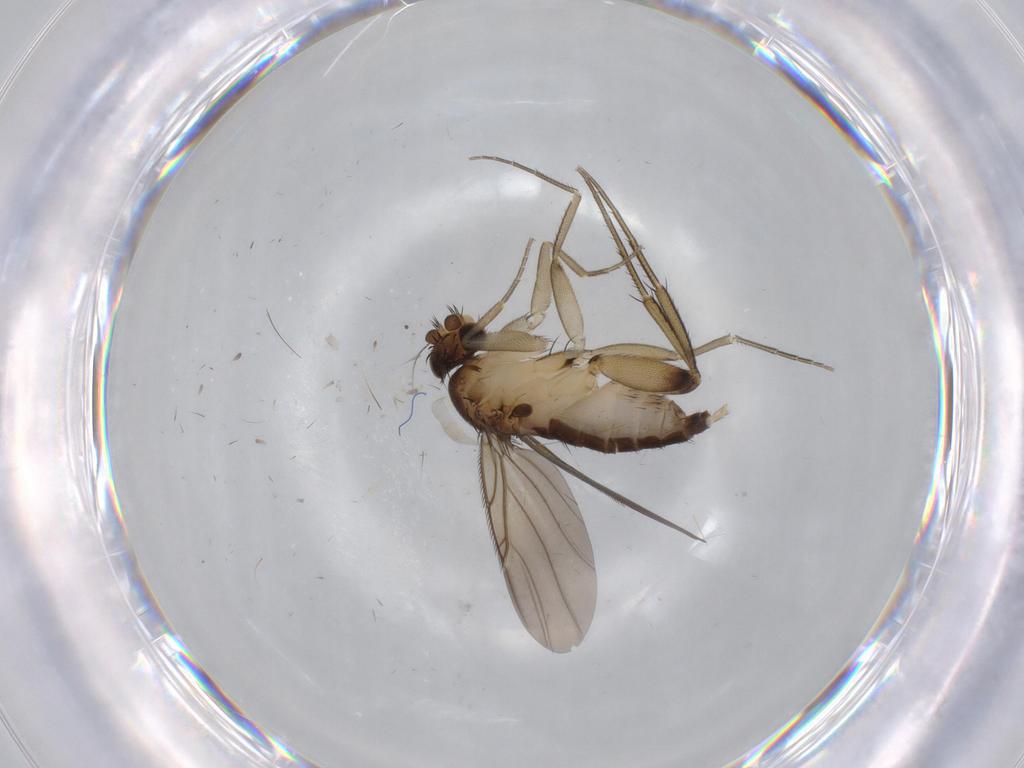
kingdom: Animalia
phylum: Arthropoda
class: Insecta
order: Diptera
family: Phoridae
